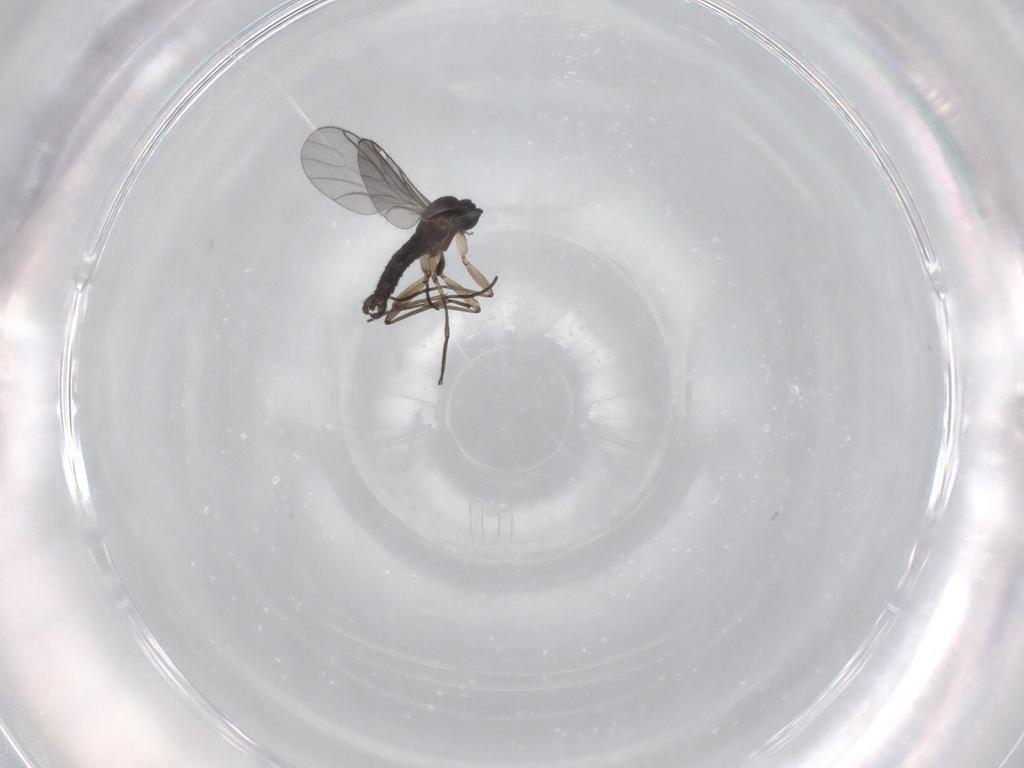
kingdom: Animalia
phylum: Arthropoda
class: Insecta
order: Diptera
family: Sciaridae
